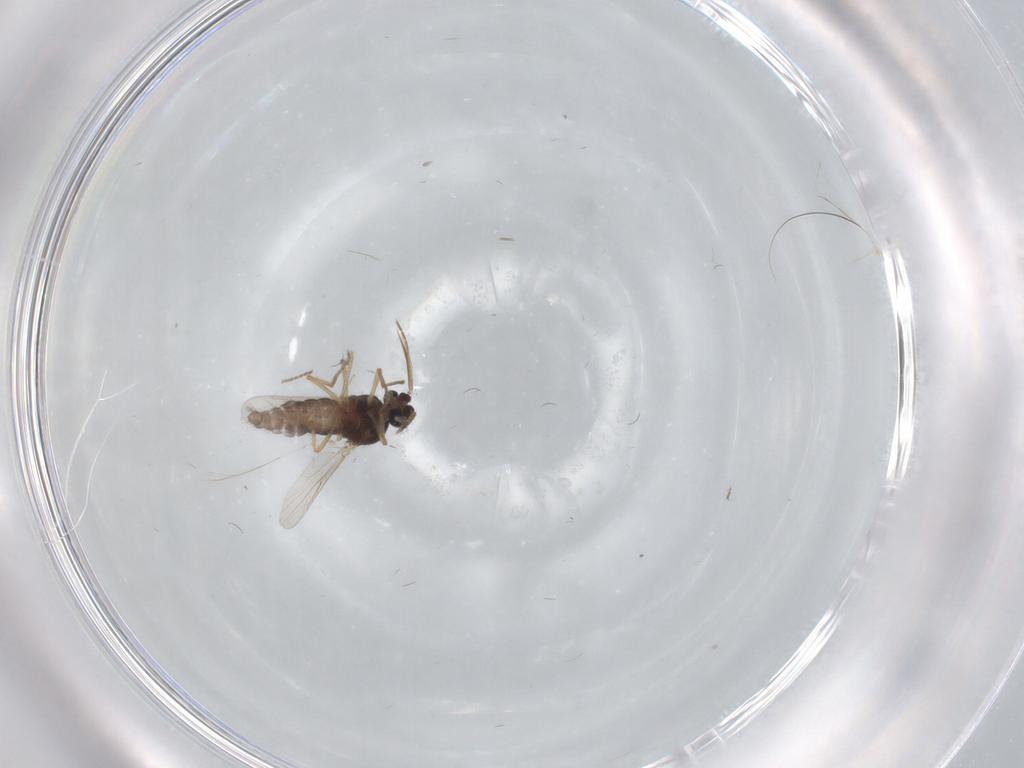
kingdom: Animalia
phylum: Arthropoda
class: Insecta
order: Diptera
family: Ceratopogonidae
